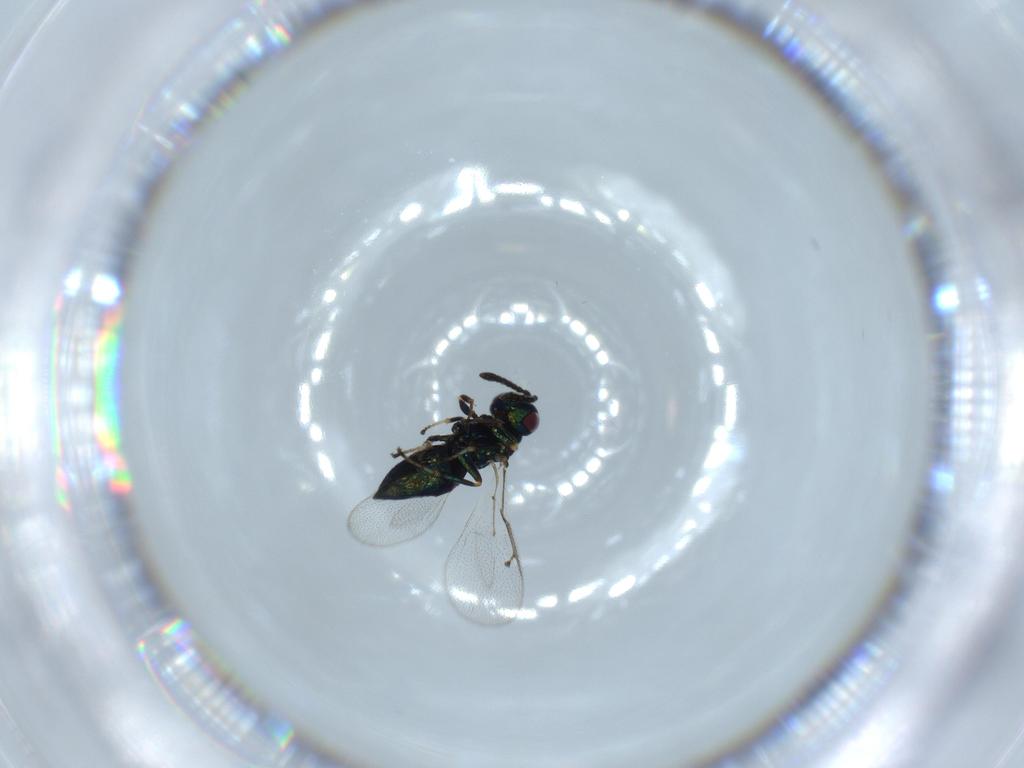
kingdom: Animalia
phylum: Arthropoda
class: Insecta
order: Hymenoptera
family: Pteromalidae
